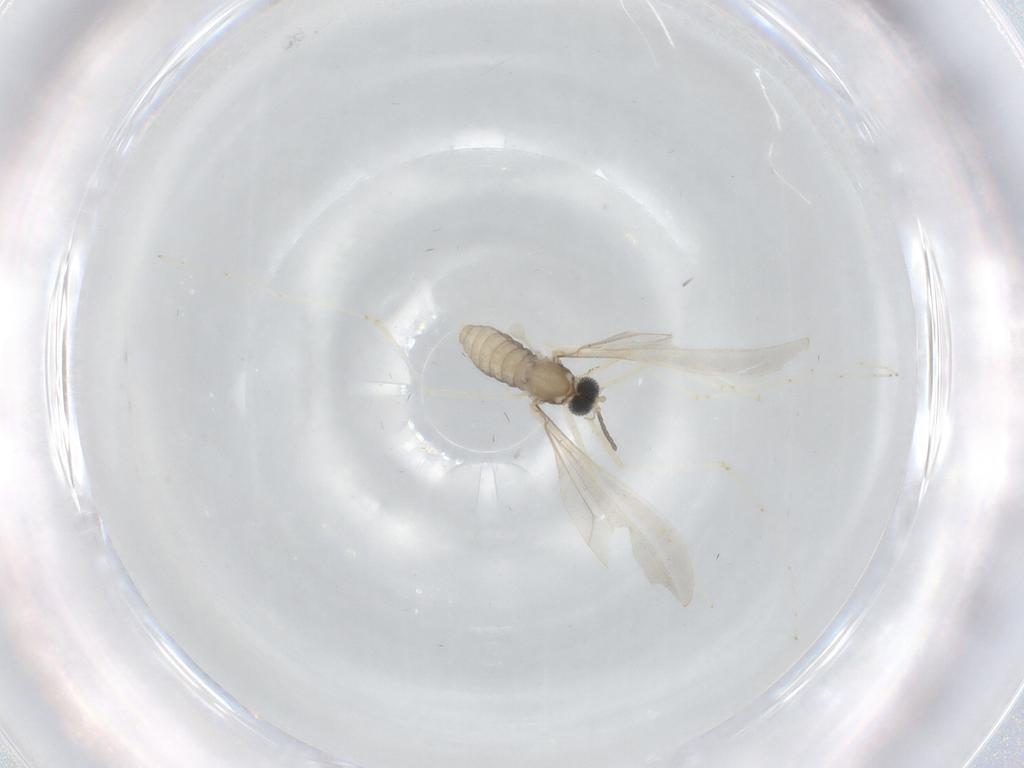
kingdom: Animalia
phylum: Arthropoda
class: Insecta
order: Diptera
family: Cecidomyiidae
